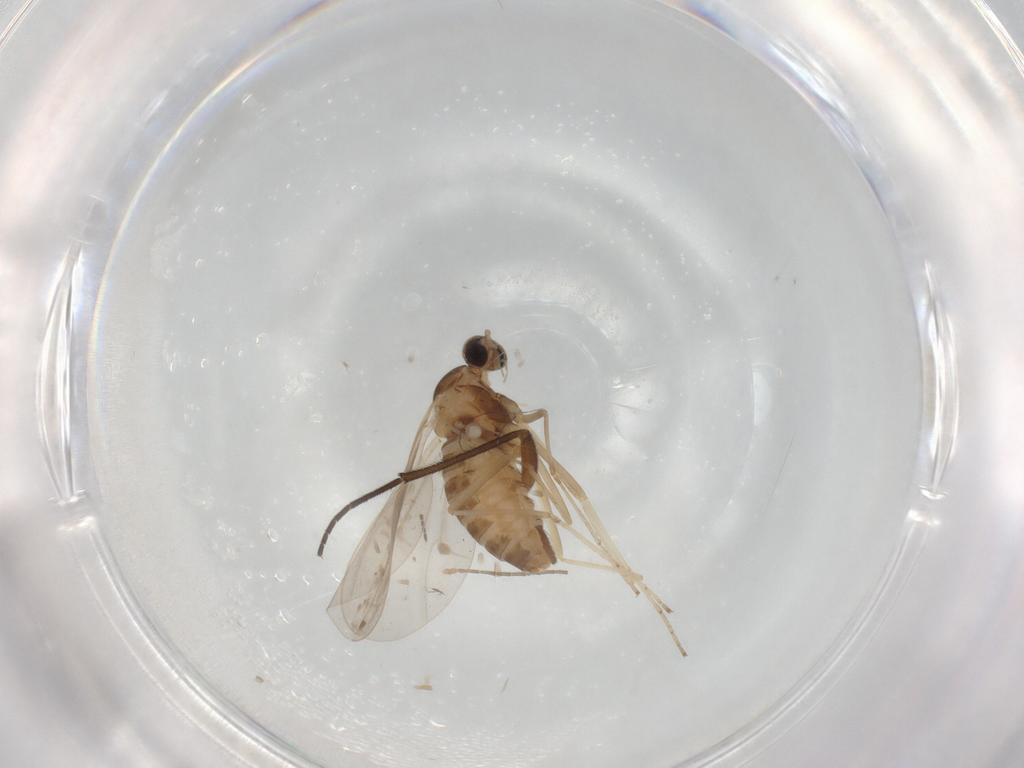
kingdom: Animalia
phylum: Arthropoda
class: Insecta
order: Diptera
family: Cecidomyiidae
